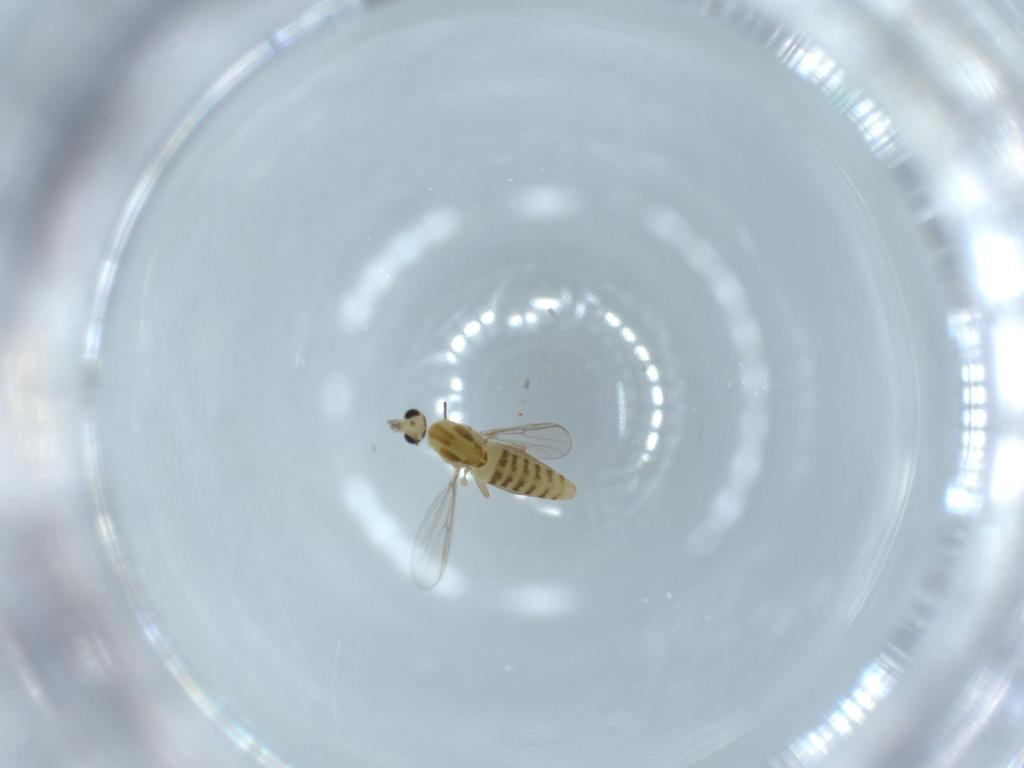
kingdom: Animalia
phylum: Arthropoda
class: Insecta
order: Diptera
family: Chironomidae
